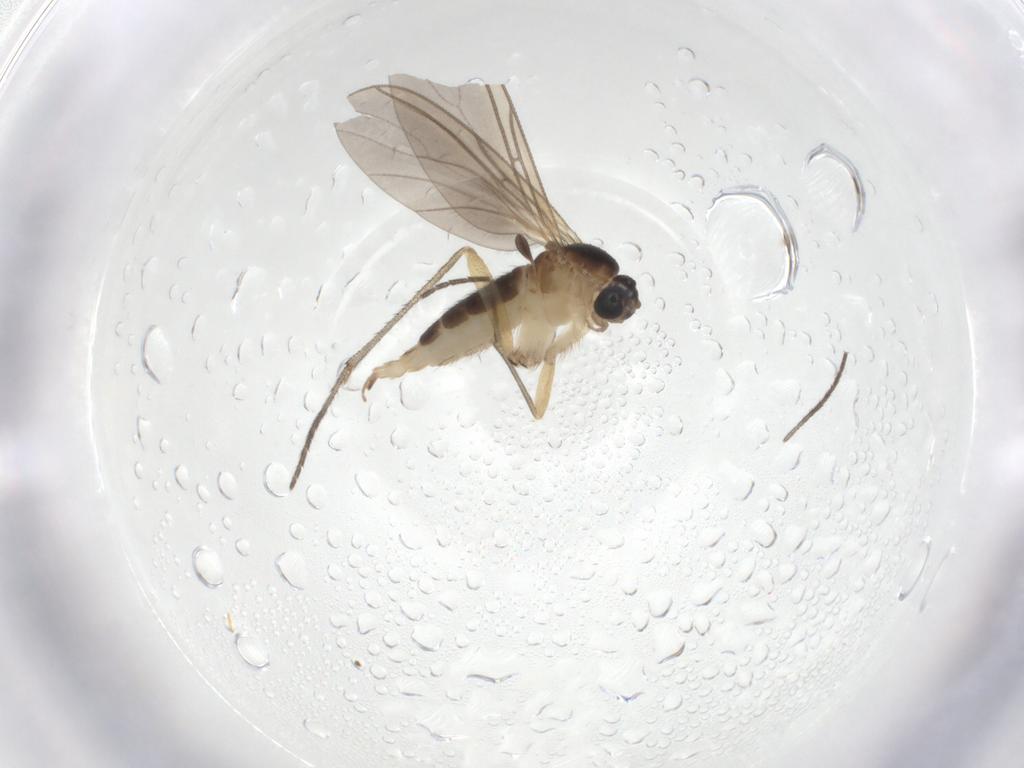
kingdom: Animalia
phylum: Arthropoda
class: Insecta
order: Diptera
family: Sciaridae
